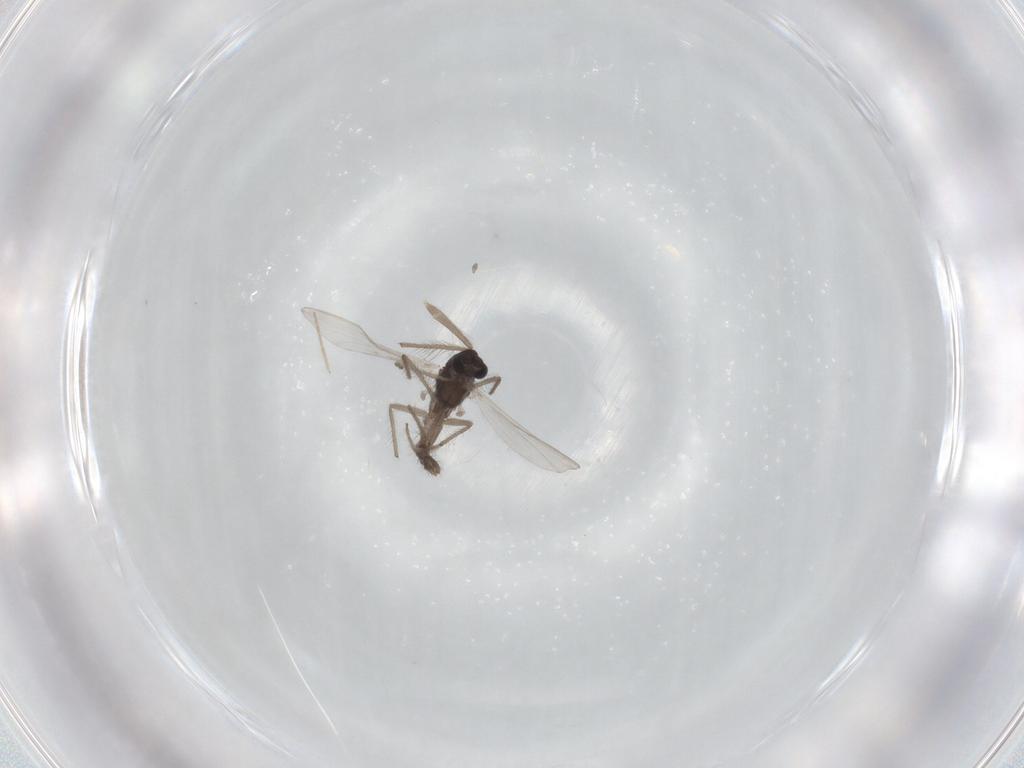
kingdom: Animalia
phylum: Arthropoda
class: Insecta
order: Diptera
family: Chironomidae
